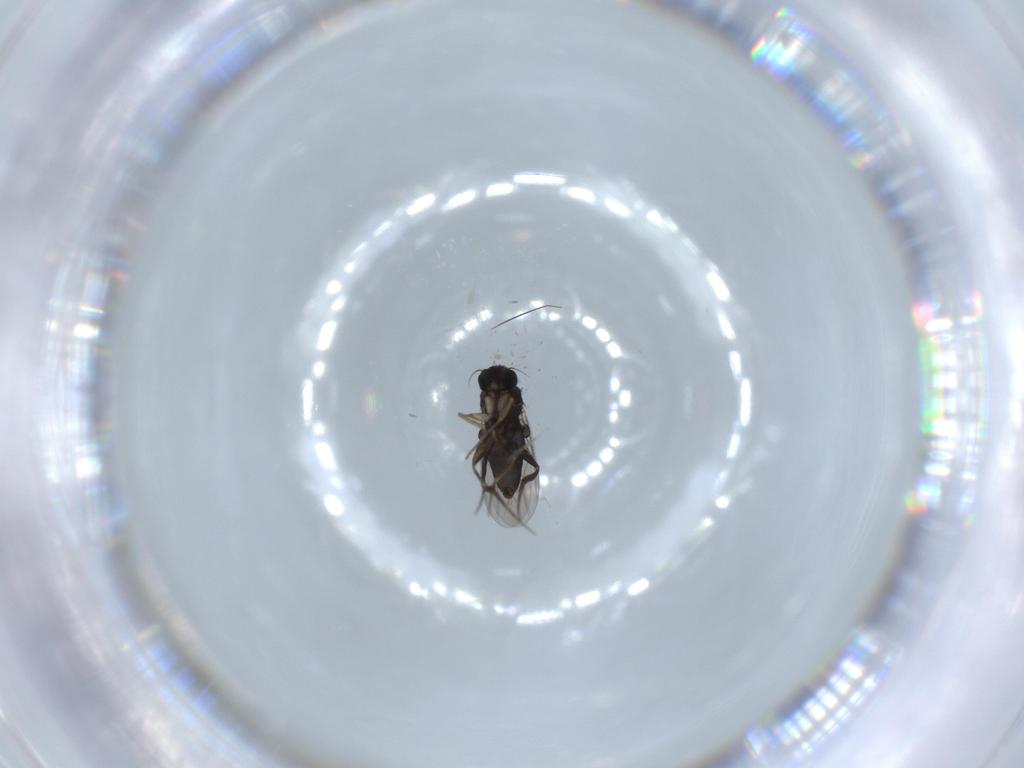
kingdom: Animalia
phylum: Arthropoda
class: Insecta
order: Diptera
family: Phoridae
